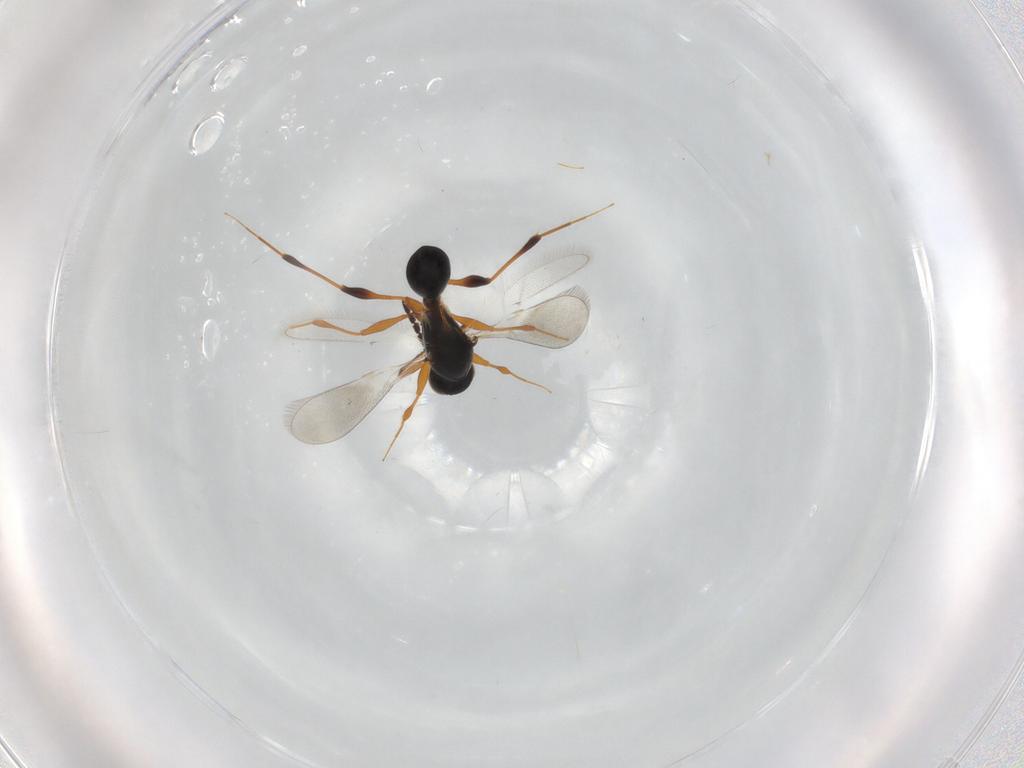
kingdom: Animalia
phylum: Arthropoda
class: Insecta
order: Hymenoptera
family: Platygastridae
